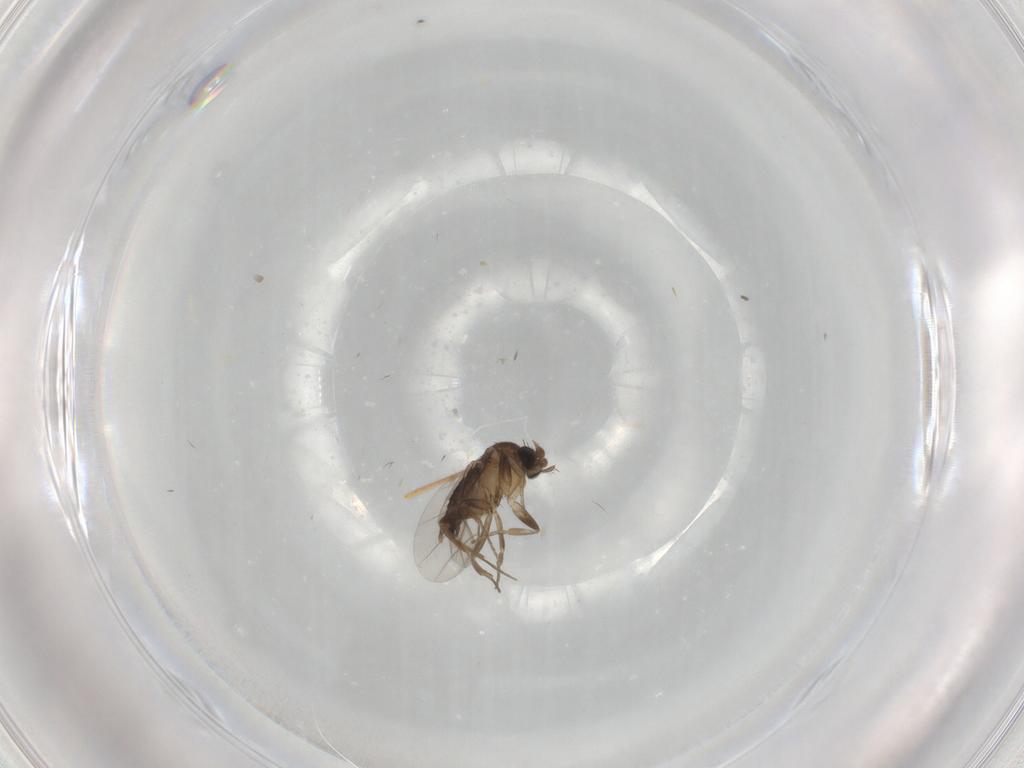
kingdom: Animalia
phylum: Arthropoda
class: Insecta
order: Diptera
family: Phoridae
